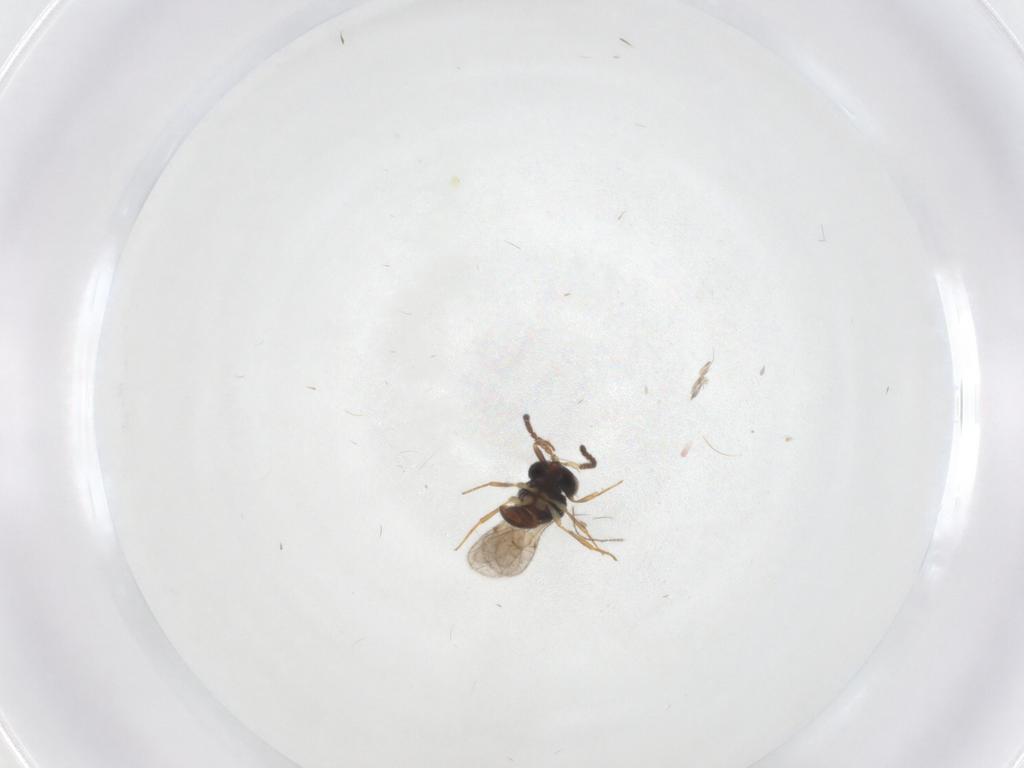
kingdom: Animalia
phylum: Arthropoda
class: Insecta
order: Hymenoptera
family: Scelionidae
